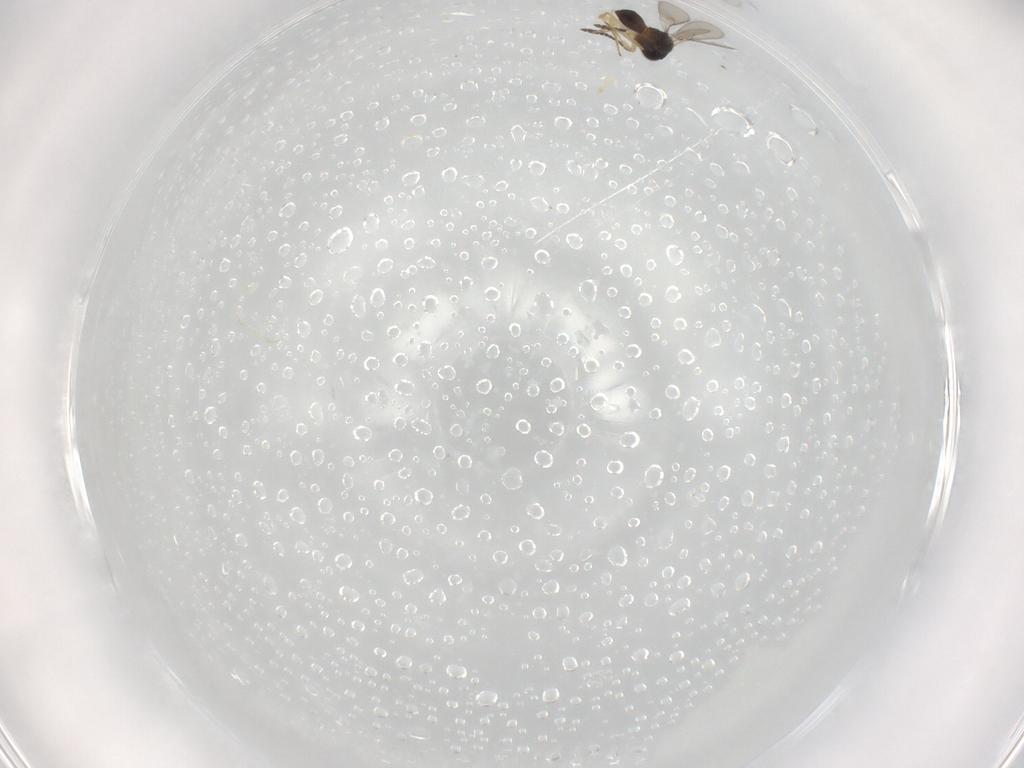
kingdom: Animalia
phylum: Arthropoda
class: Insecta
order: Hymenoptera
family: Scelionidae
